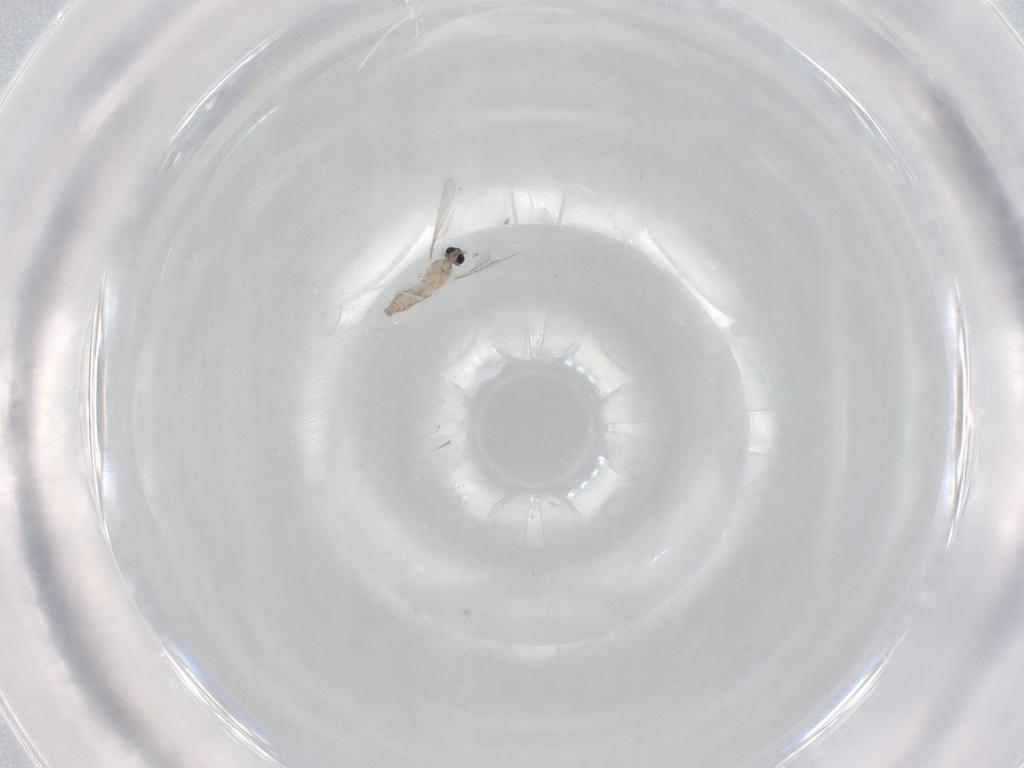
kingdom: Animalia
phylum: Arthropoda
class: Insecta
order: Diptera
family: Cecidomyiidae
